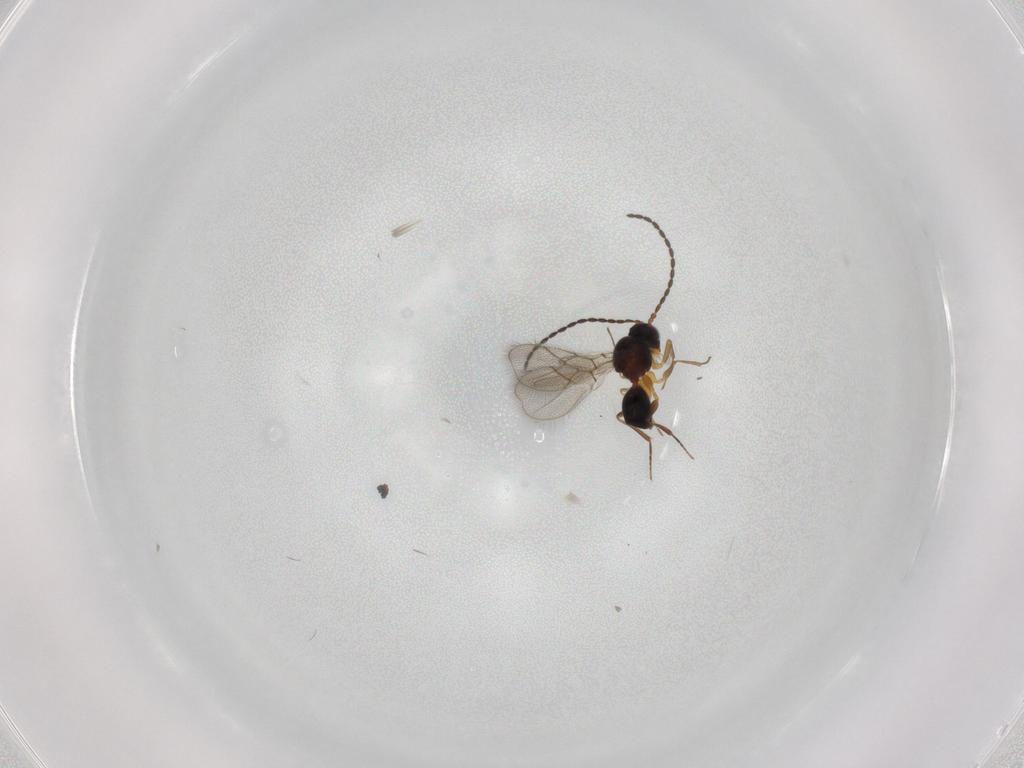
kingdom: Animalia
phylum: Arthropoda
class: Insecta
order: Hymenoptera
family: Figitidae
